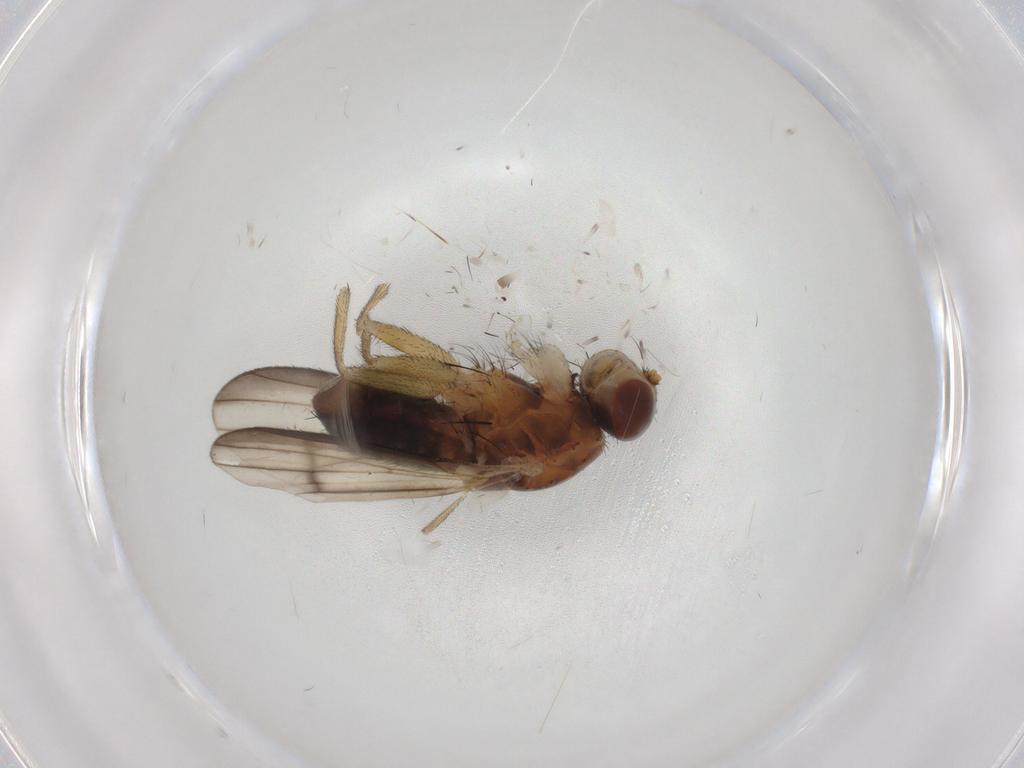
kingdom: Animalia
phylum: Arthropoda
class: Insecta
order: Diptera
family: Heleomyzidae
